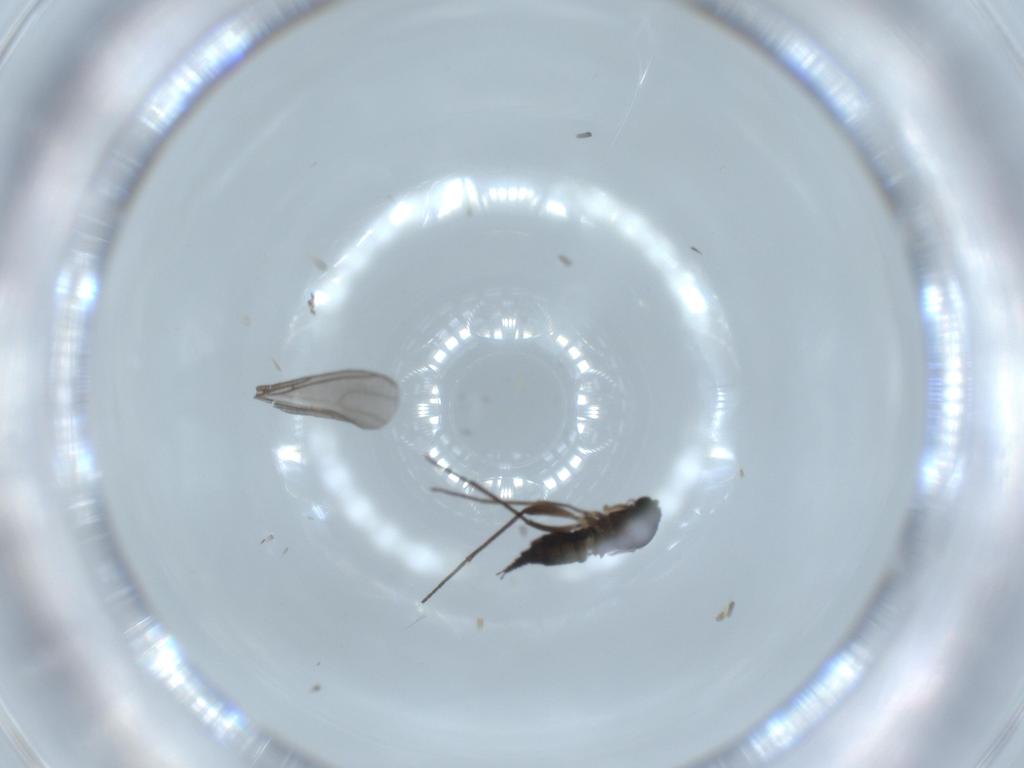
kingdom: Animalia
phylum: Arthropoda
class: Insecta
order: Diptera
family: Sciaridae
